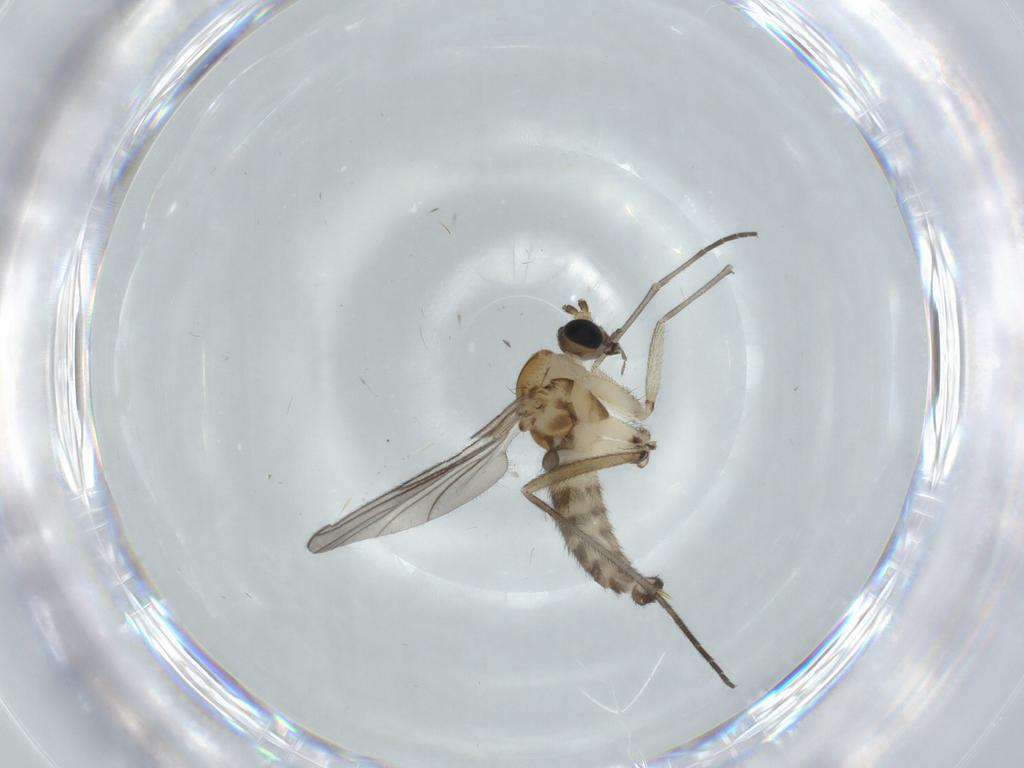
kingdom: Animalia
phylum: Arthropoda
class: Insecta
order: Diptera
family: Sciaridae
